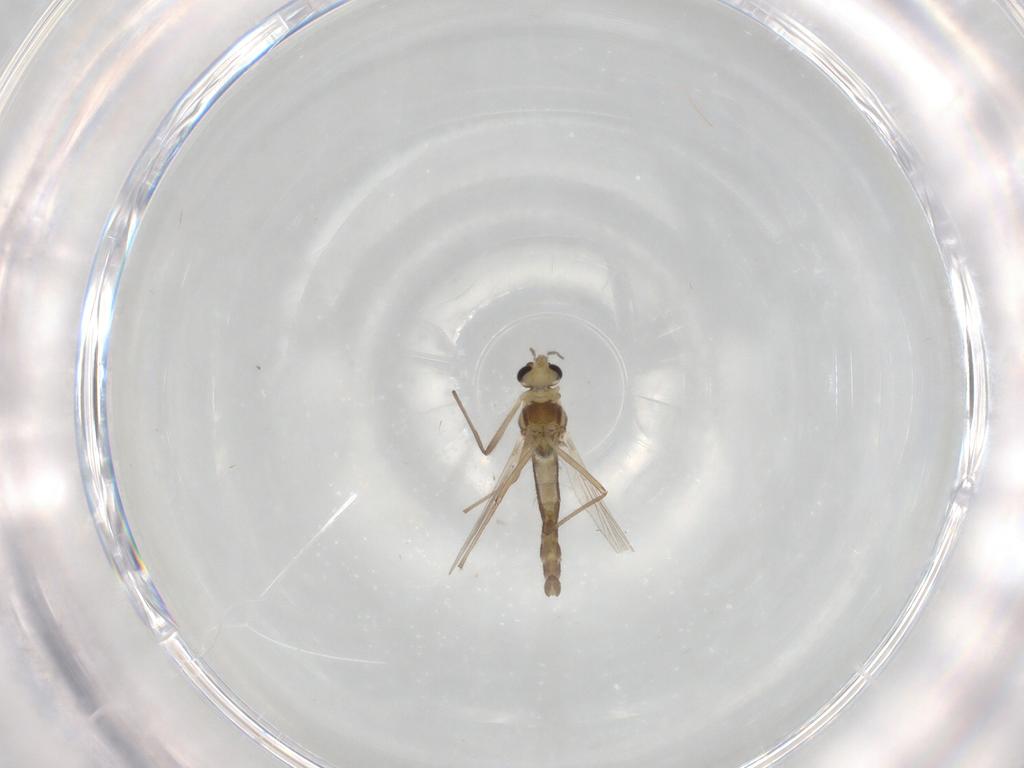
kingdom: Animalia
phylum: Arthropoda
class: Insecta
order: Diptera
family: Chironomidae
